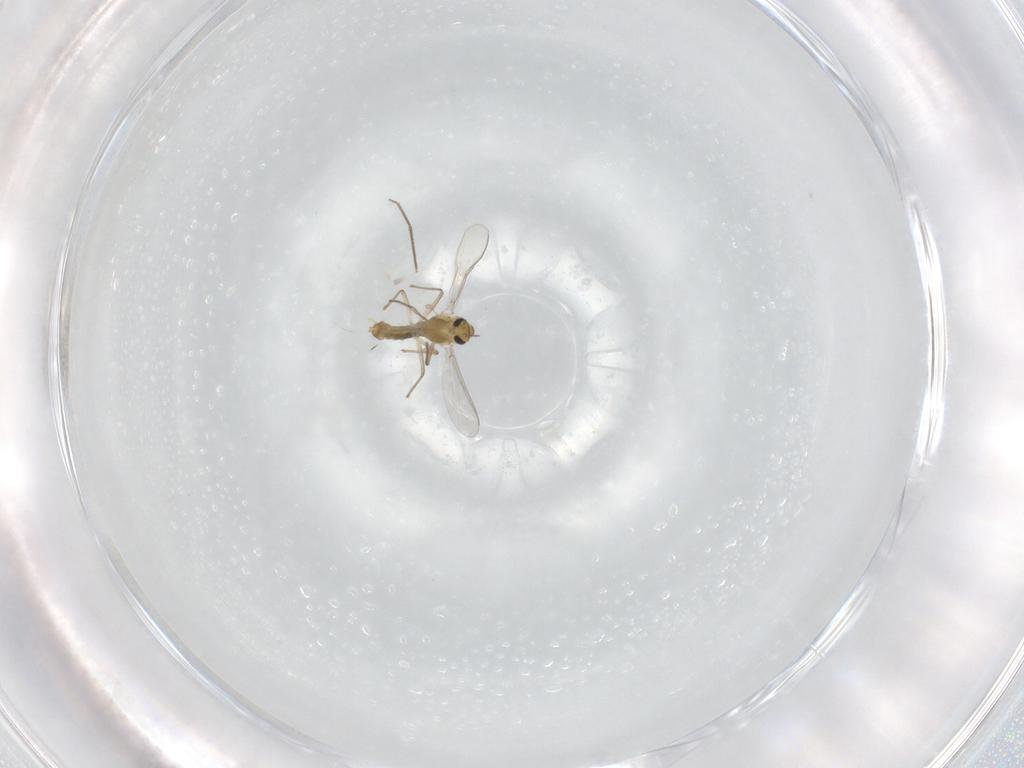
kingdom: Animalia
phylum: Arthropoda
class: Insecta
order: Diptera
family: Chironomidae
